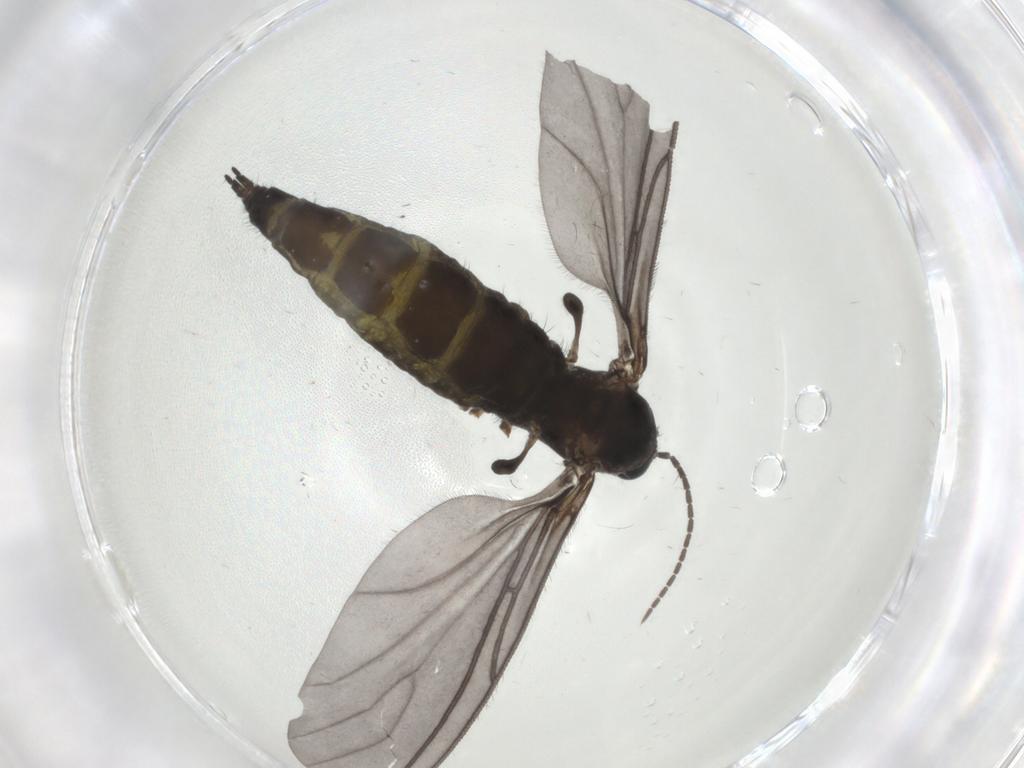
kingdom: Animalia
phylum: Arthropoda
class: Insecta
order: Diptera
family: Sciaridae
